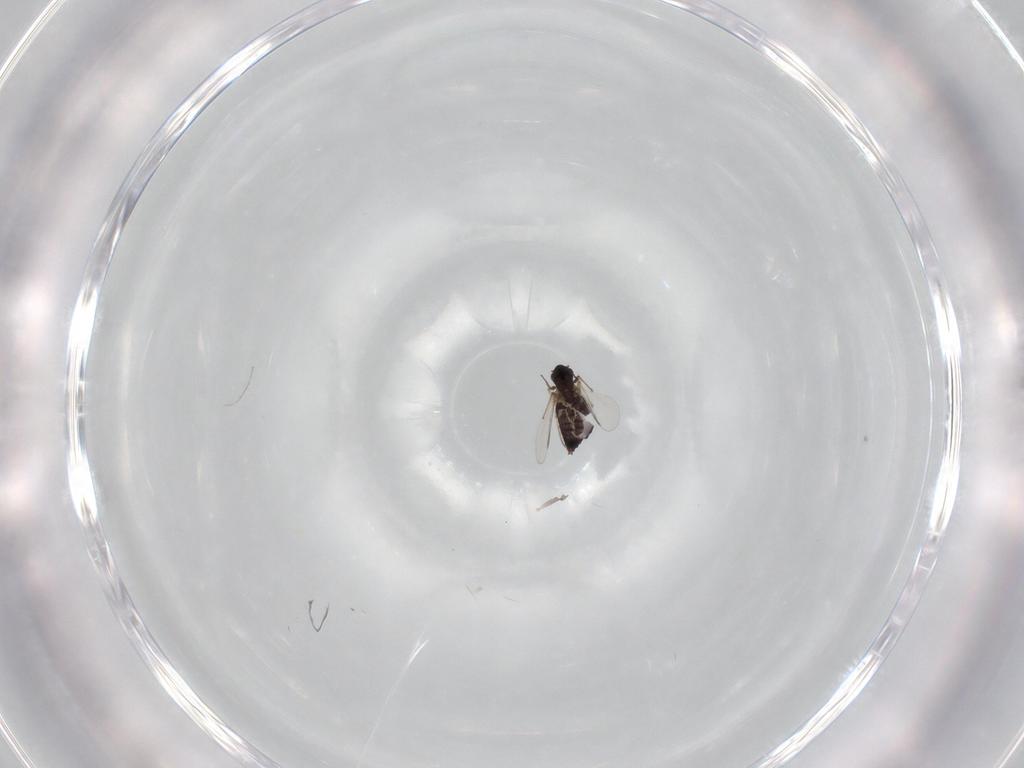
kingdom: Animalia
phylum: Arthropoda
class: Insecta
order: Diptera
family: Chironomidae
